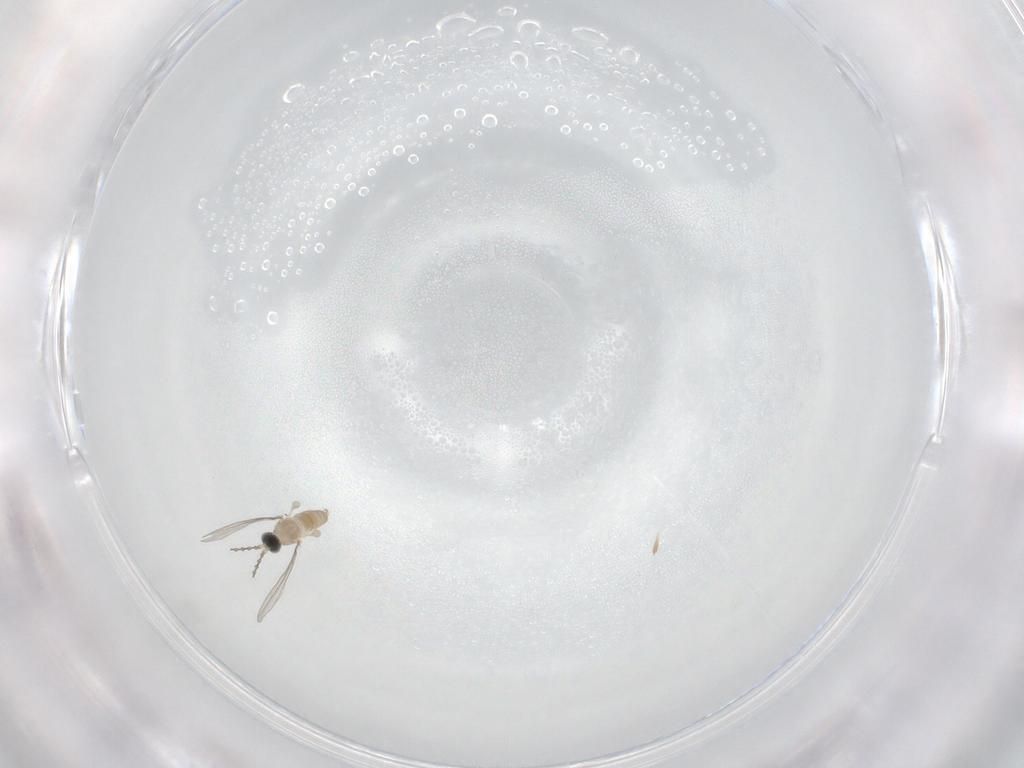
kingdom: Animalia
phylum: Arthropoda
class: Insecta
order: Diptera
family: Cecidomyiidae
